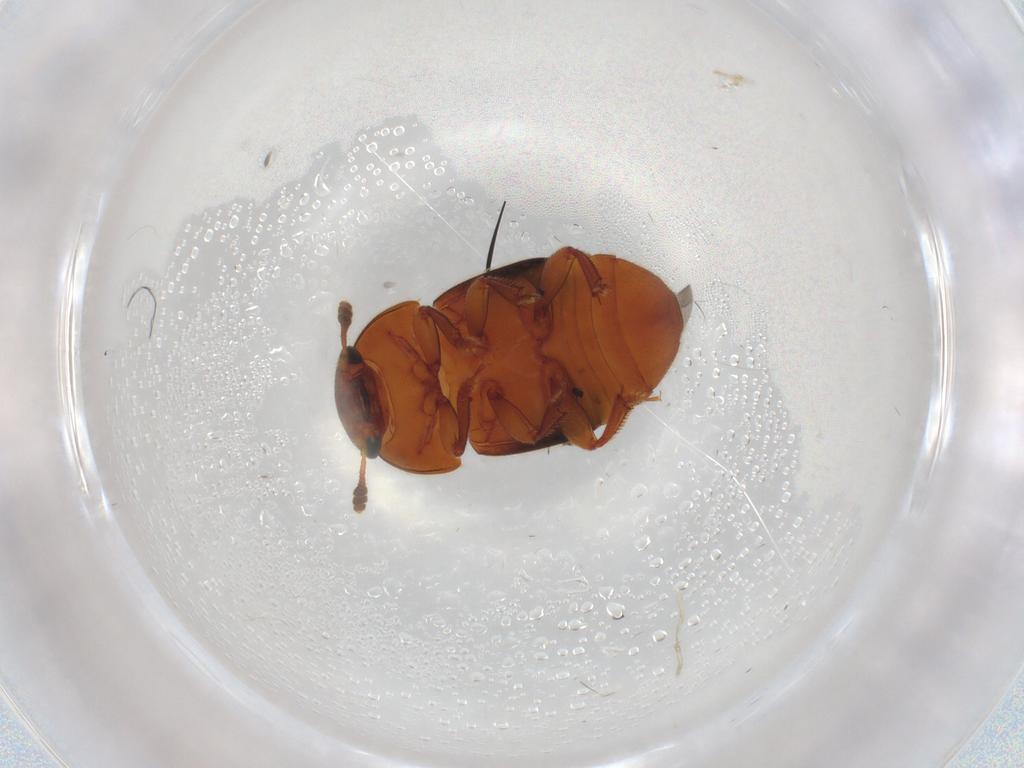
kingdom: Animalia
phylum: Arthropoda
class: Insecta
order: Coleoptera
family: Nitidulidae
